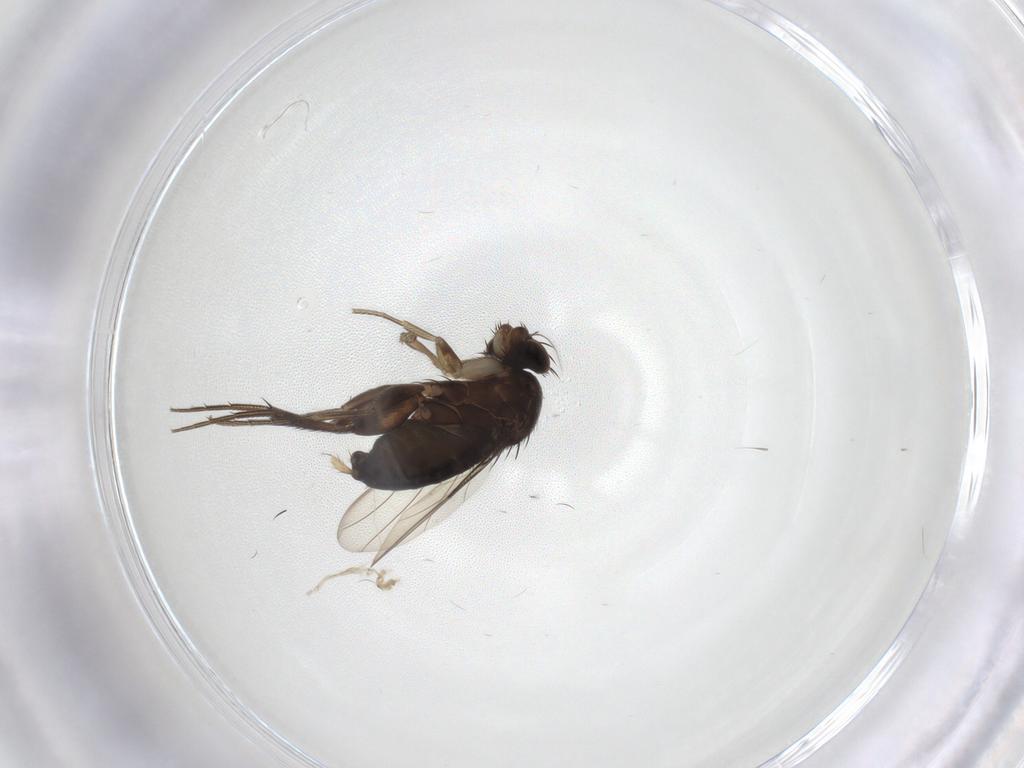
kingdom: Animalia
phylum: Arthropoda
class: Insecta
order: Diptera
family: Phoridae
